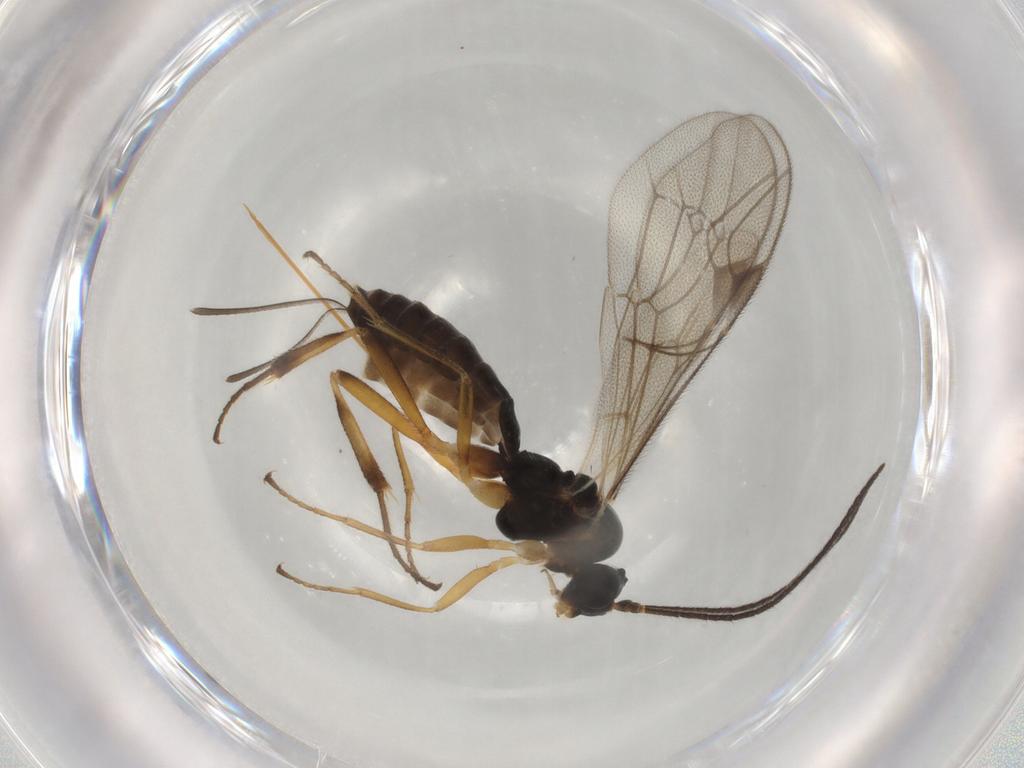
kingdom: Animalia
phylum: Arthropoda
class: Insecta
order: Hymenoptera
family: Ichneumonidae
